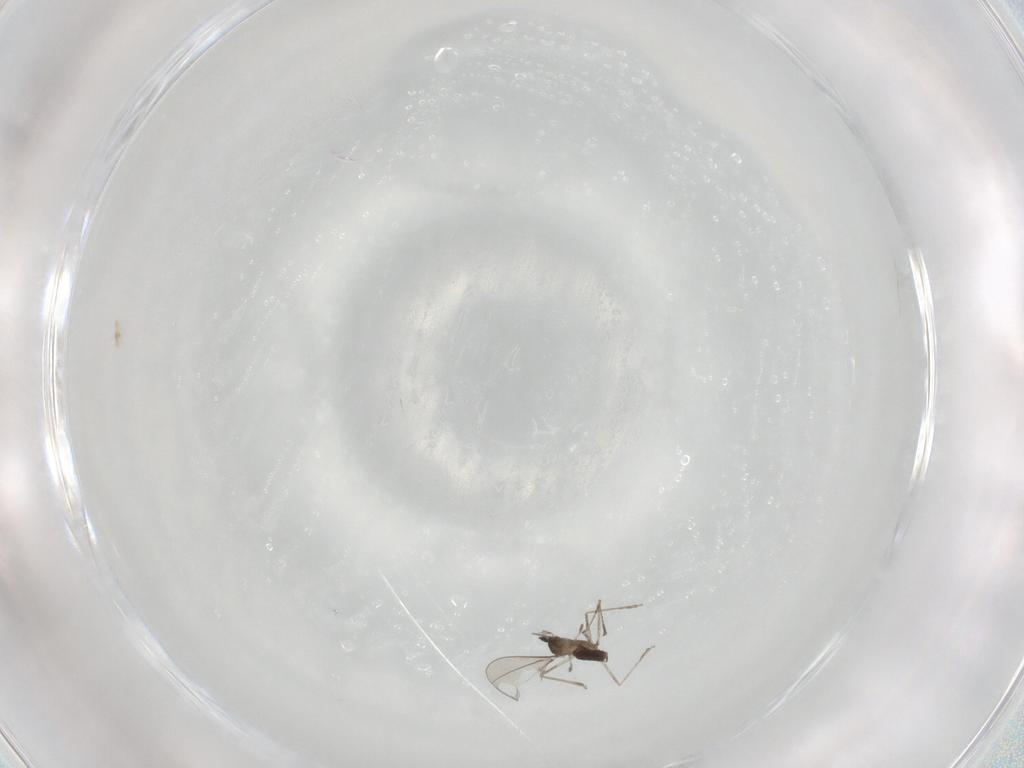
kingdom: Animalia
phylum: Arthropoda
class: Insecta
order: Diptera
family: Cecidomyiidae
